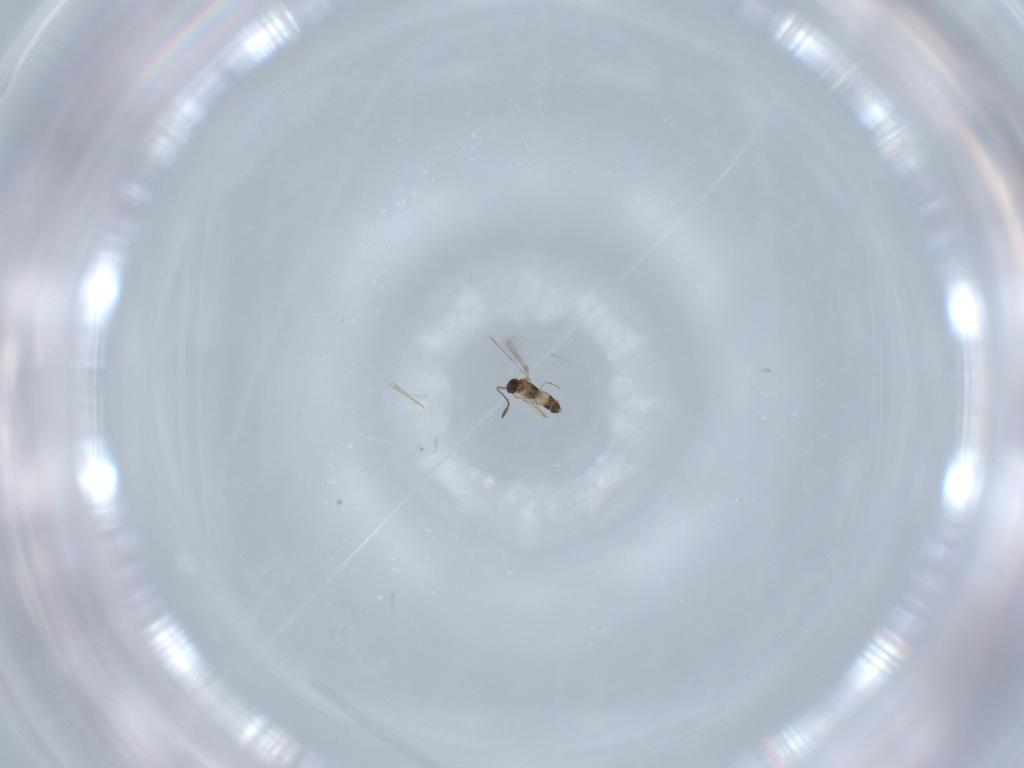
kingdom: Animalia
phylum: Arthropoda
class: Insecta
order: Hymenoptera
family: Mymaridae
